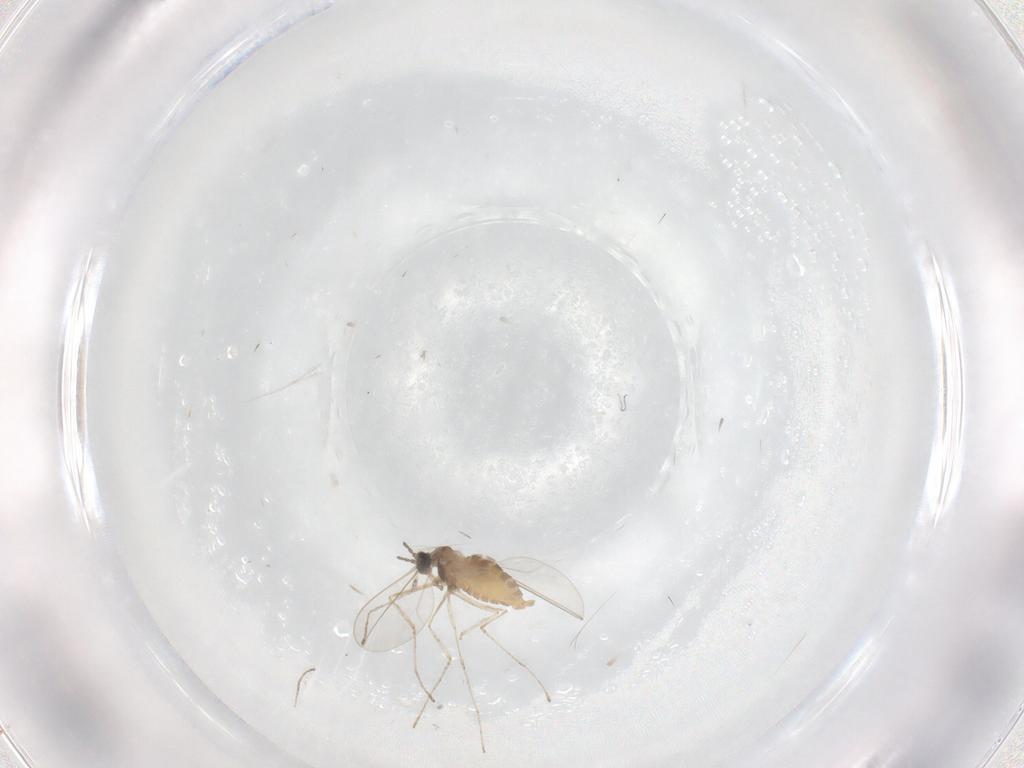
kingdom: Animalia
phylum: Arthropoda
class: Insecta
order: Diptera
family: Cecidomyiidae
